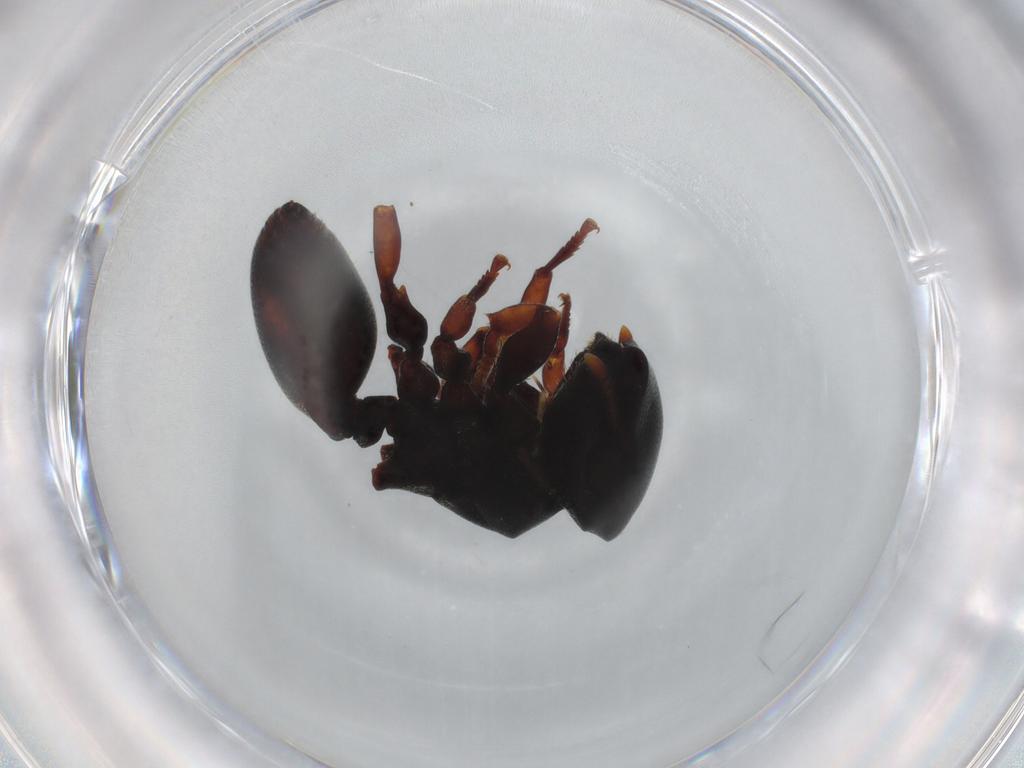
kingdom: Animalia
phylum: Arthropoda
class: Insecta
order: Hymenoptera
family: Formicidae
